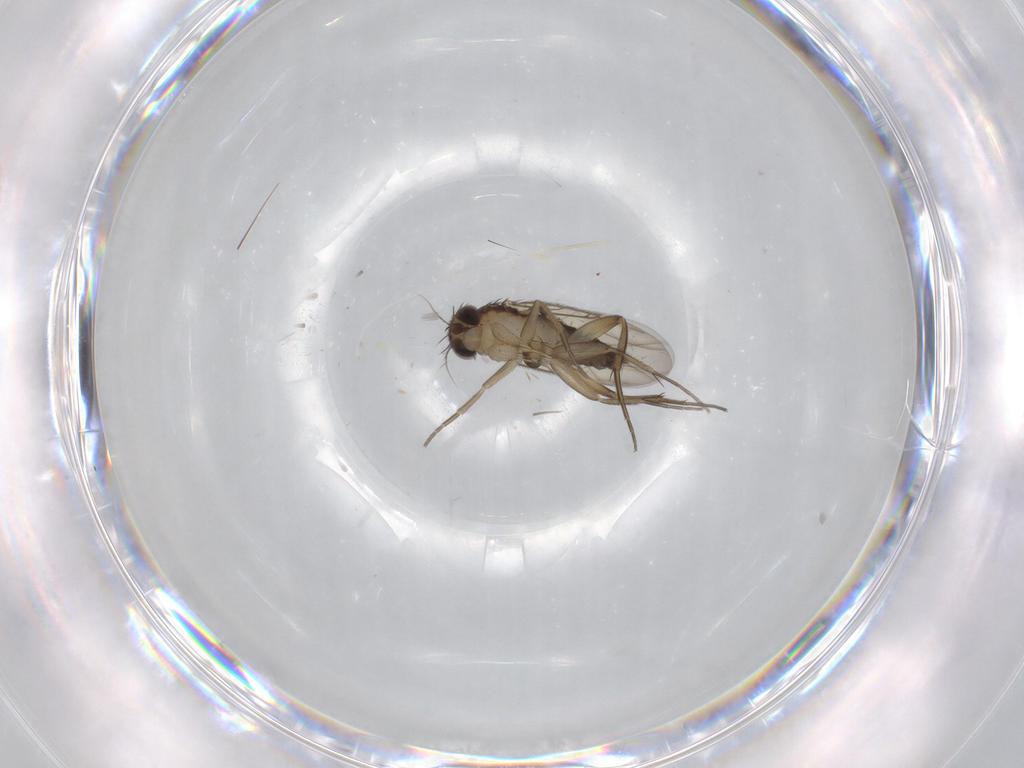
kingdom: Animalia
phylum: Arthropoda
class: Insecta
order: Diptera
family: Phoridae
